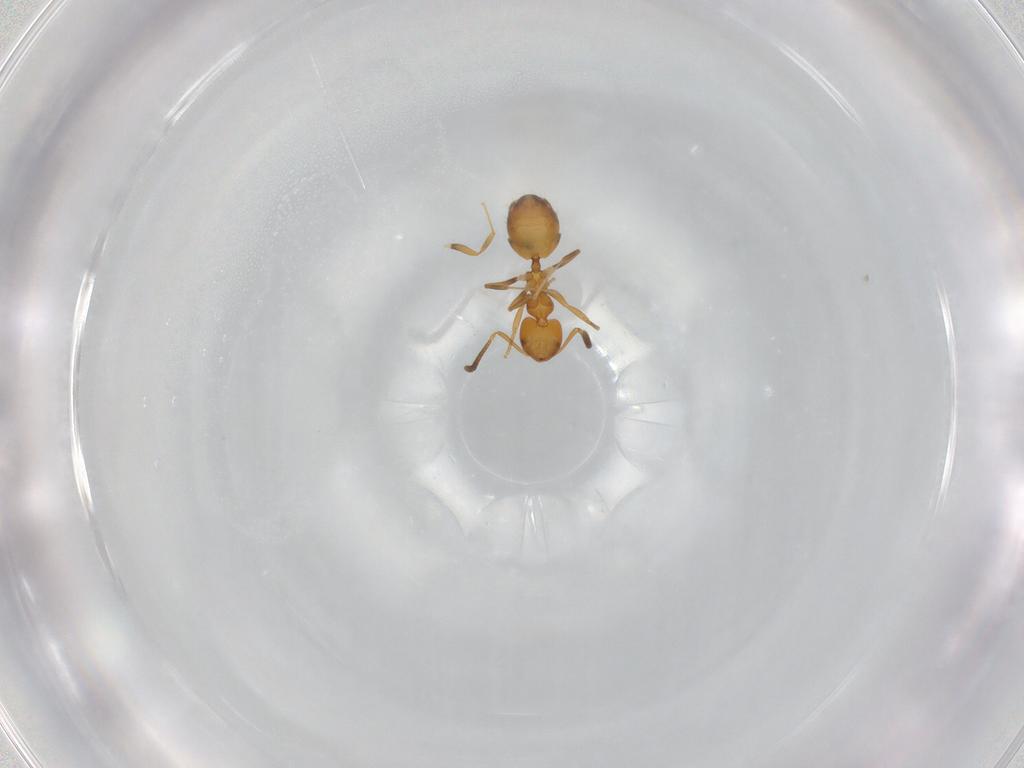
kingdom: Animalia
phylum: Arthropoda
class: Insecta
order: Hymenoptera
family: Formicidae
